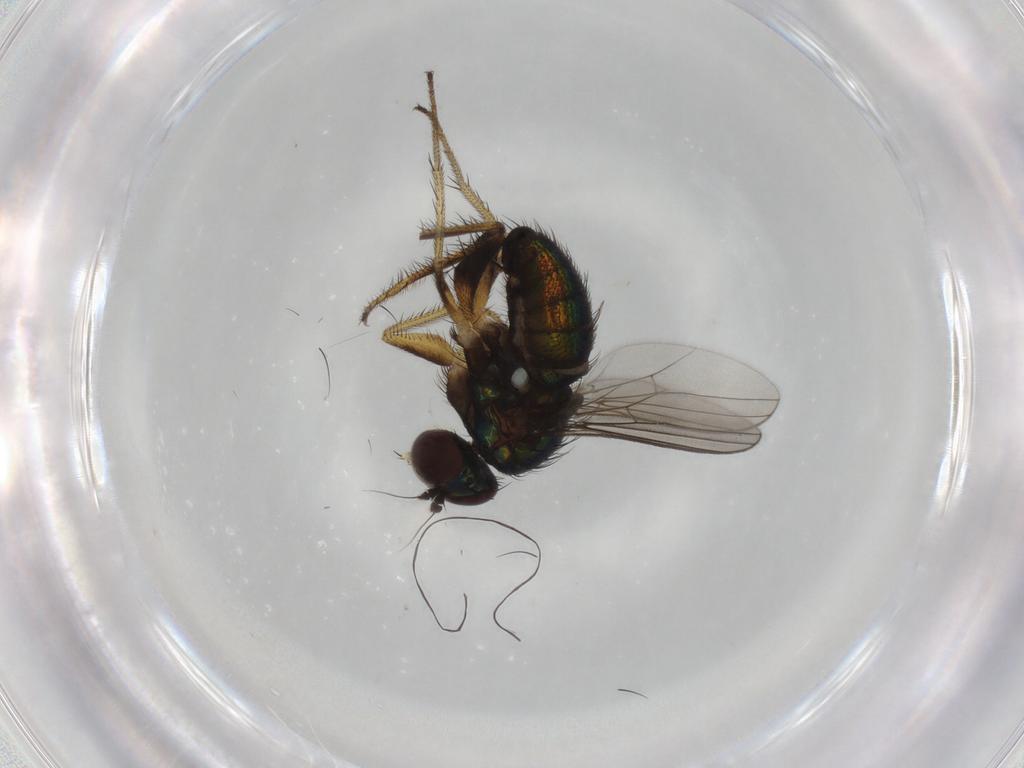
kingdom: Animalia
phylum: Arthropoda
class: Insecta
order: Diptera
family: Dolichopodidae
